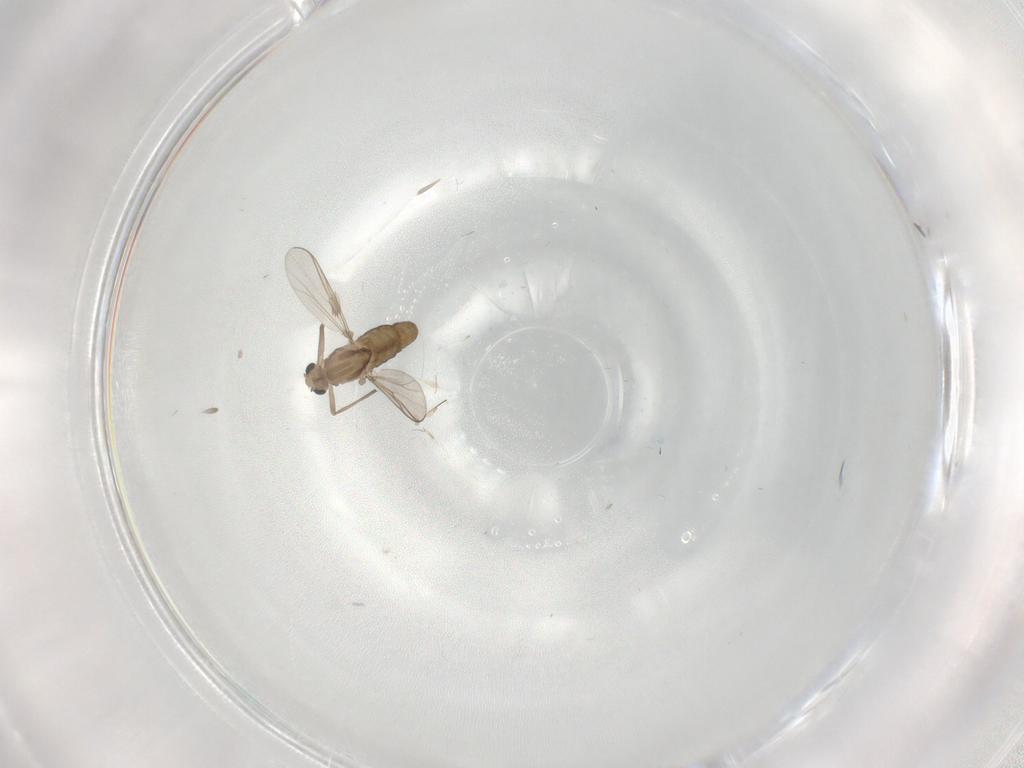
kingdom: Animalia
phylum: Arthropoda
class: Insecta
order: Diptera
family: Chironomidae
